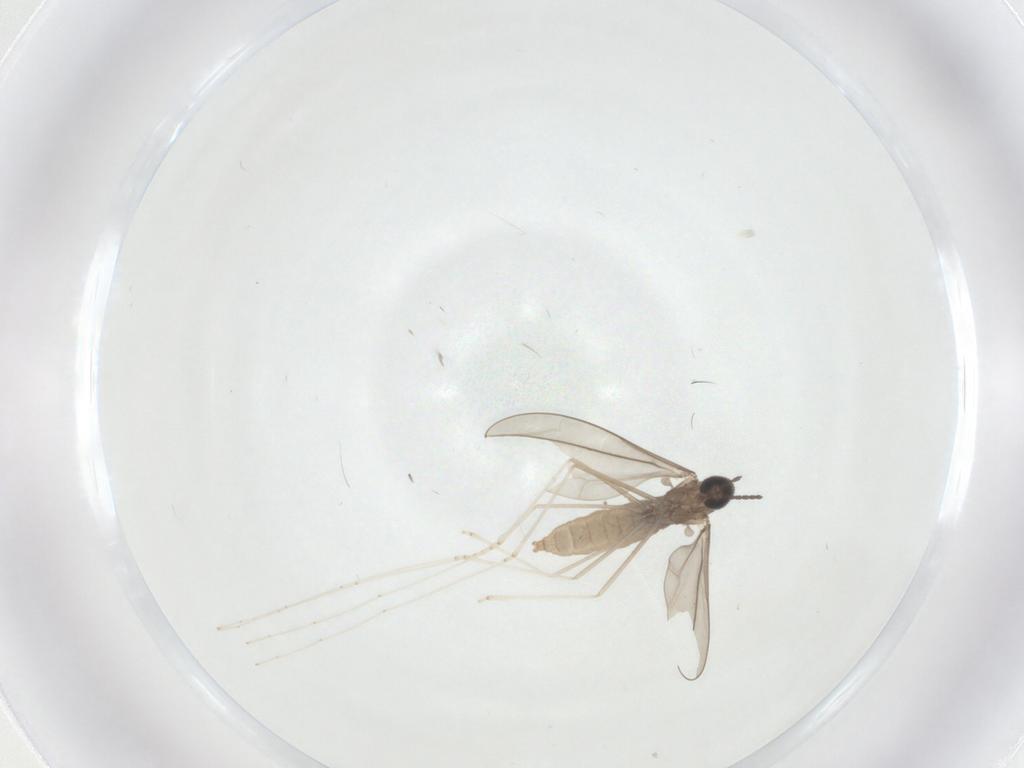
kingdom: Animalia
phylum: Arthropoda
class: Insecta
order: Diptera
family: Cecidomyiidae
